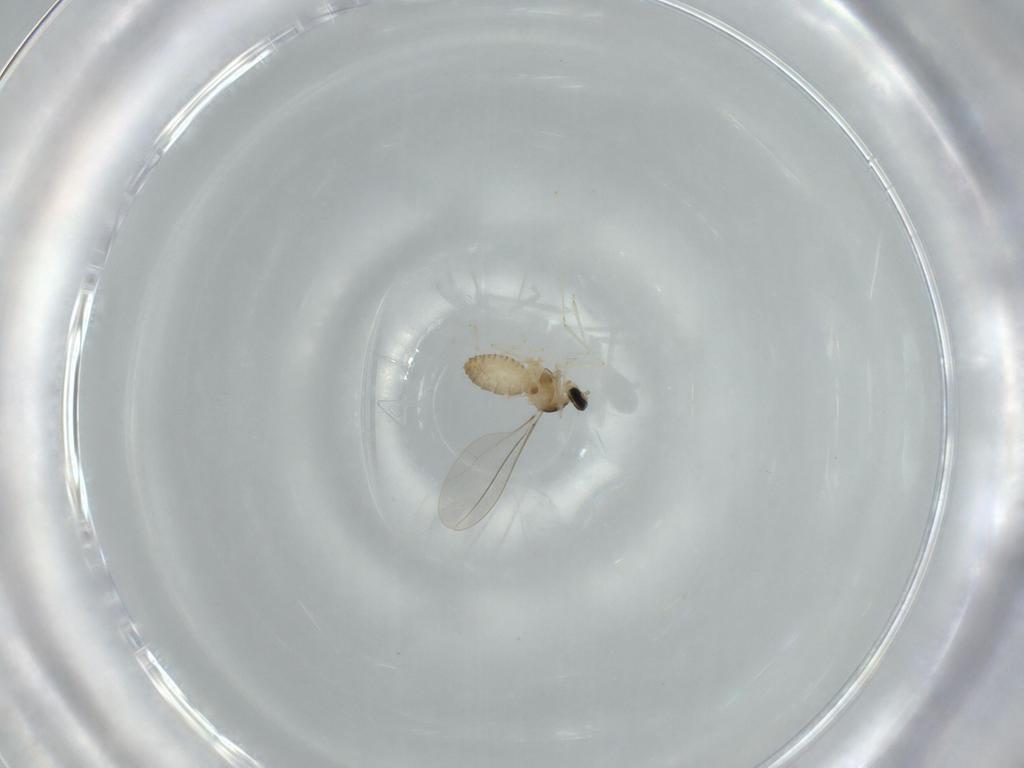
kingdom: Animalia
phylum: Arthropoda
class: Insecta
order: Diptera
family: Cecidomyiidae
